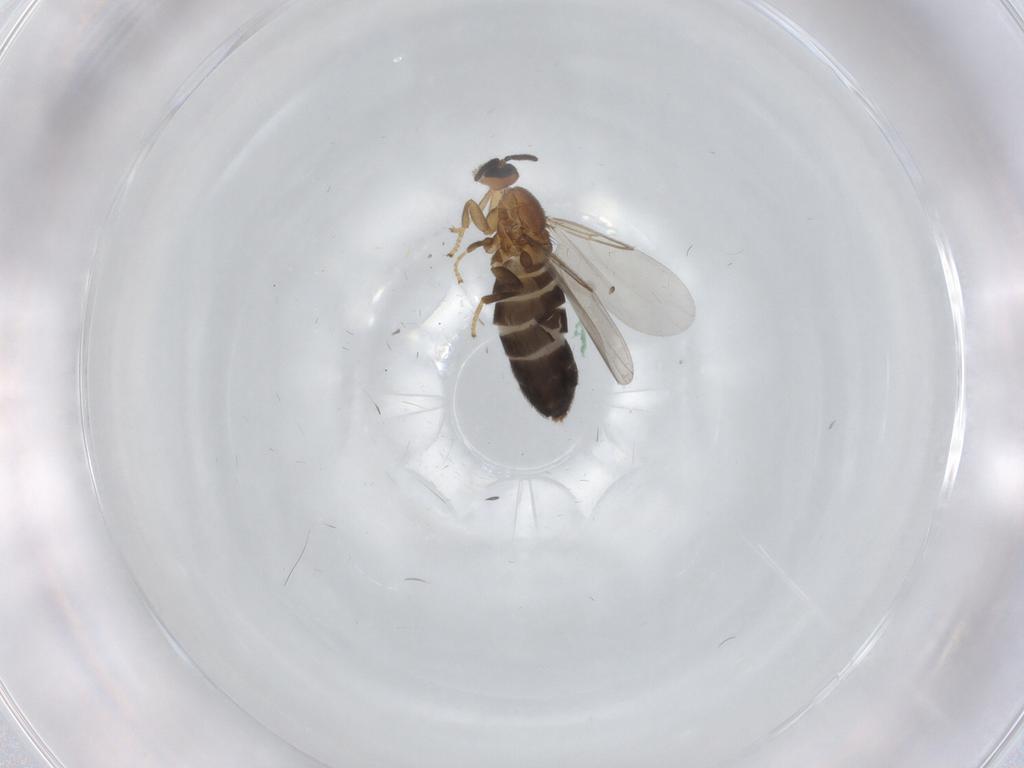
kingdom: Animalia
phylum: Arthropoda
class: Insecta
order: Diptera
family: Scatopsidae
